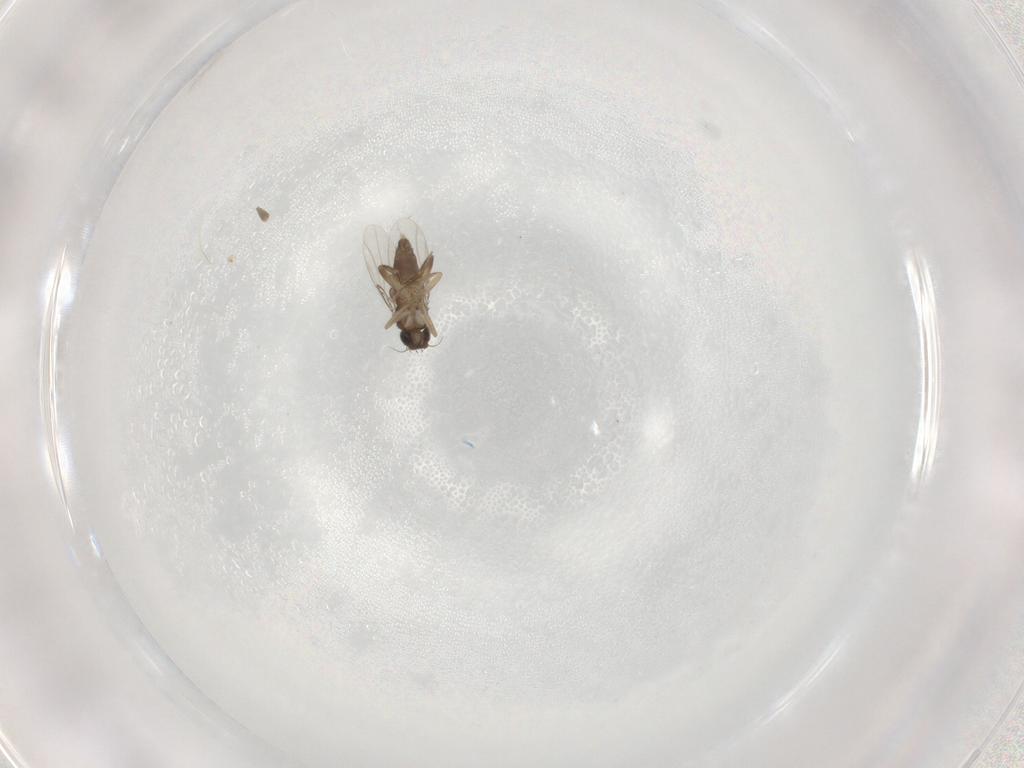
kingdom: Animalia
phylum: Arthropoda
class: Insecta
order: Diptera
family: Phoridae
